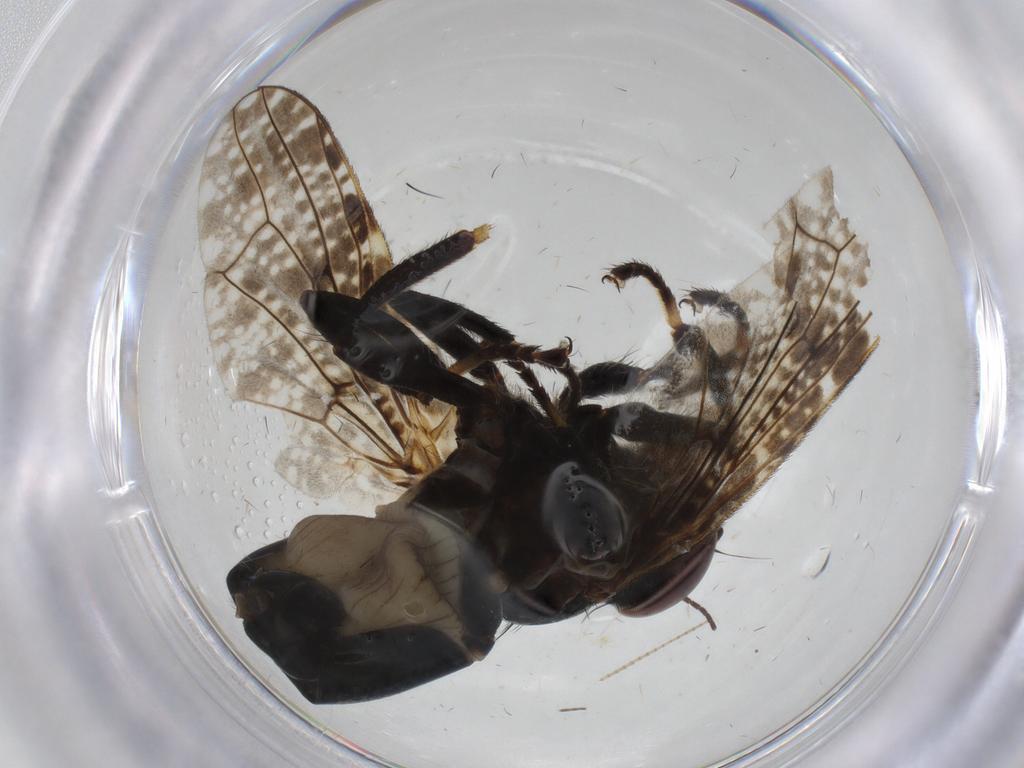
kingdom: Animalia
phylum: Arthropoda
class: Insecta
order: Diptera
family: Platystomatidae
